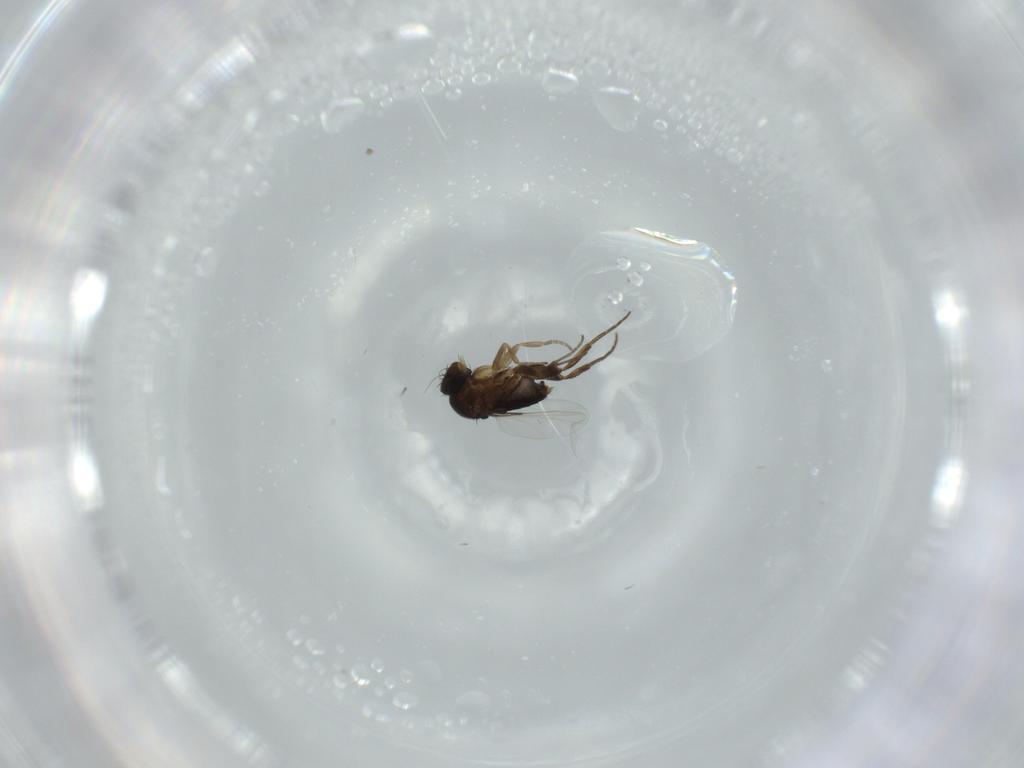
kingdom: Animalia
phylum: Arthropoda
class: Insecta
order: Diptera
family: Phoridae
